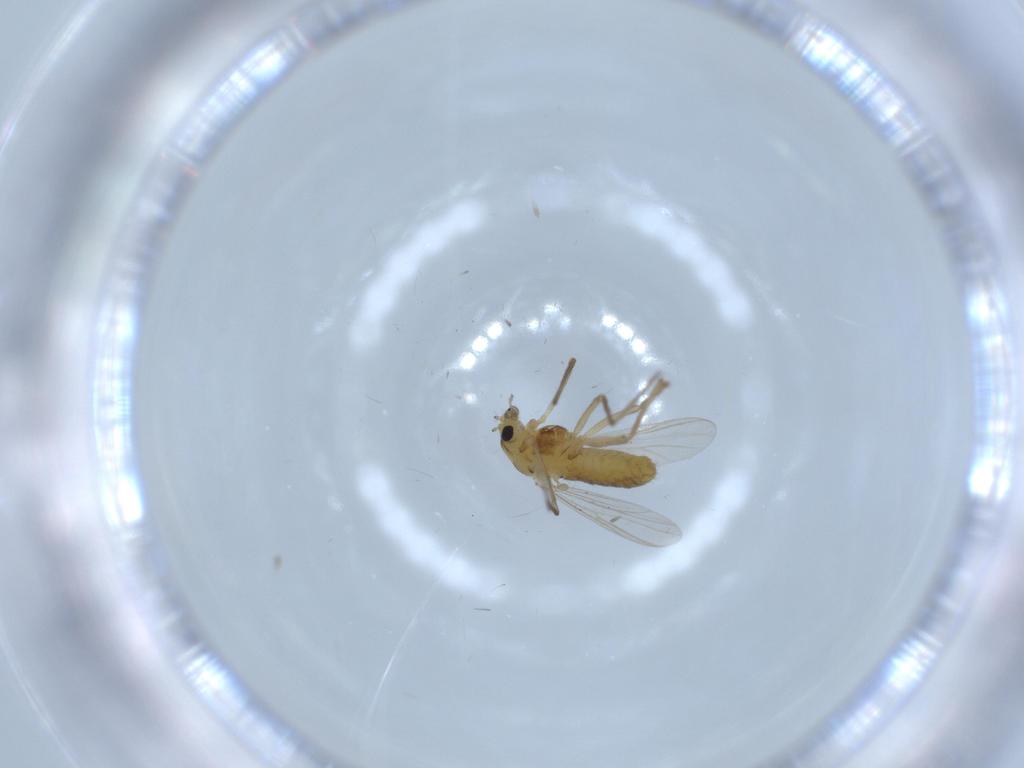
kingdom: Animalia
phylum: Arthropoda
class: Insecta
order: Diptera
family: Chironomidae
